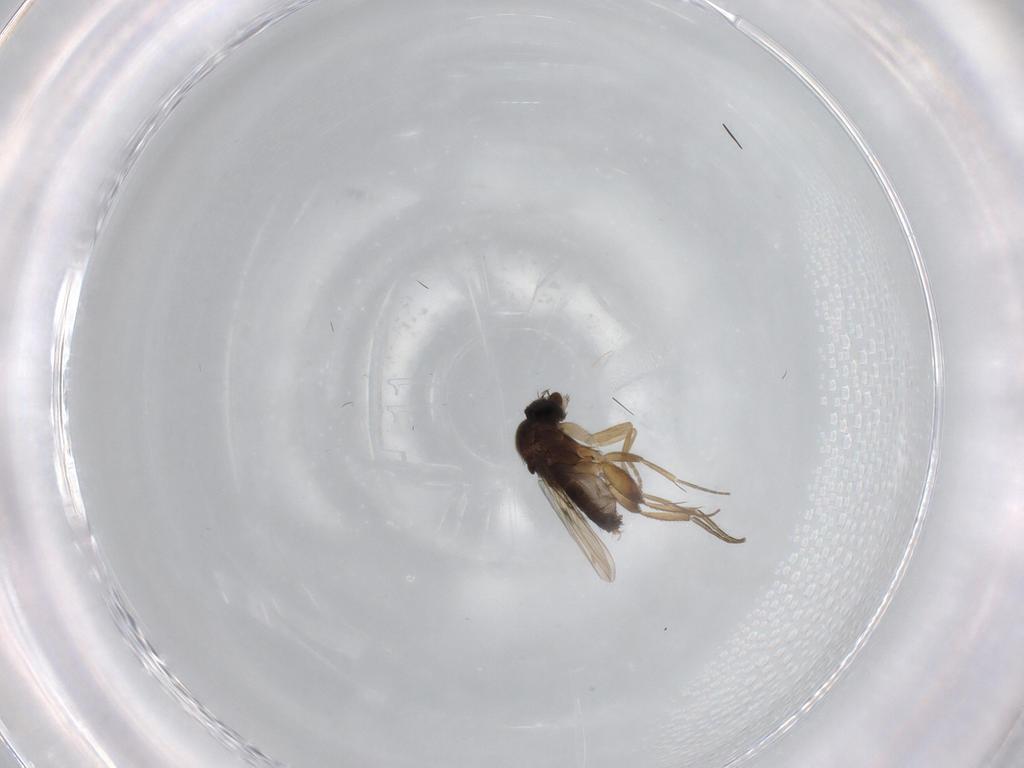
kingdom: Animalia
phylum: Arthropoda
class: Insecta
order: Diptera
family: Phoridae
